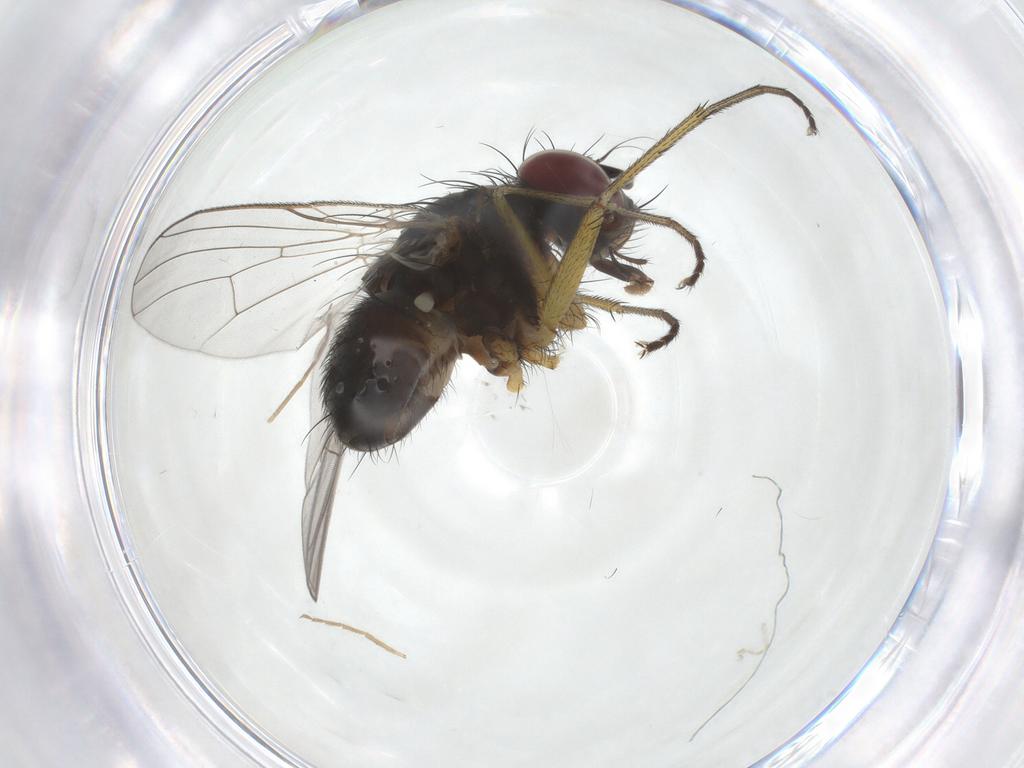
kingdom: Animalia
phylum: Arthropoda
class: Insecta
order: Diptera
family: Muscidae
